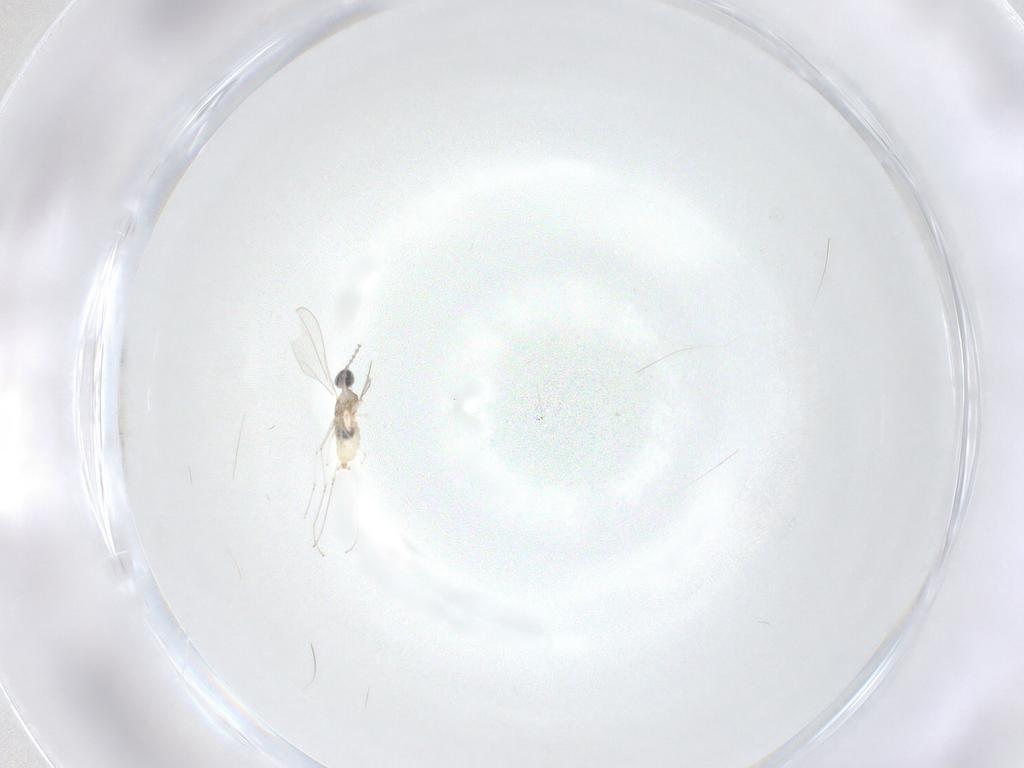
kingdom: Animalia
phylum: Arthropoda
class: Insecta
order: Diptera
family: Cecidomyiidae
